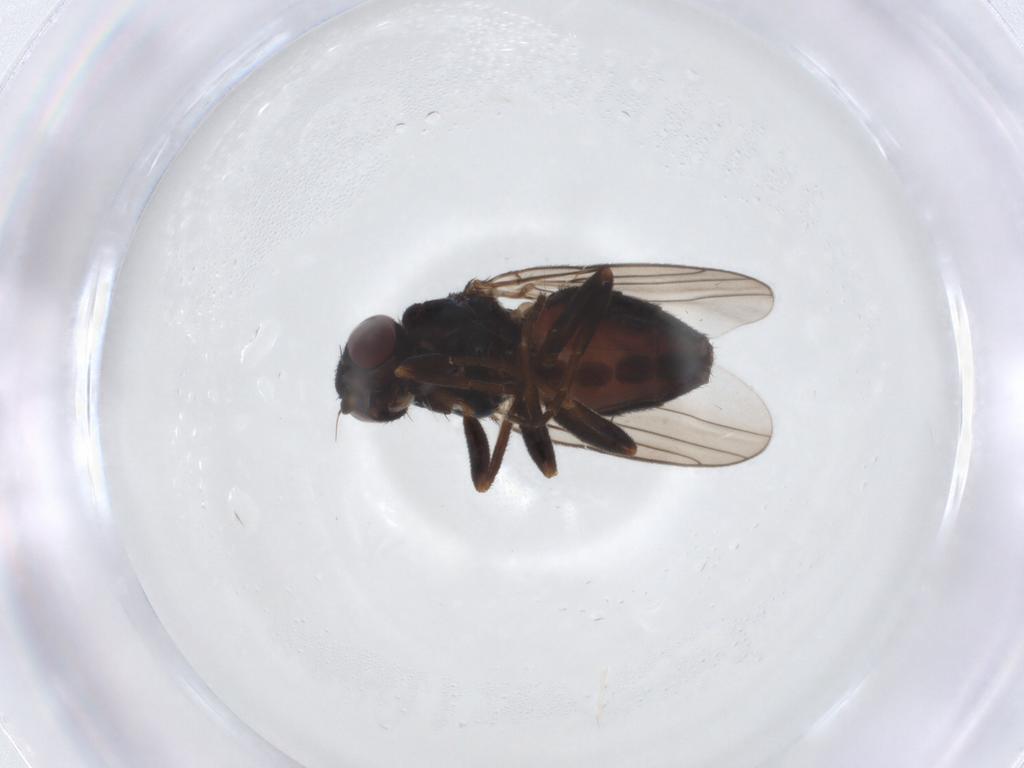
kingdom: Animalia
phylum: Arthropoda
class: Insecta
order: Diptera
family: Chloropidae
